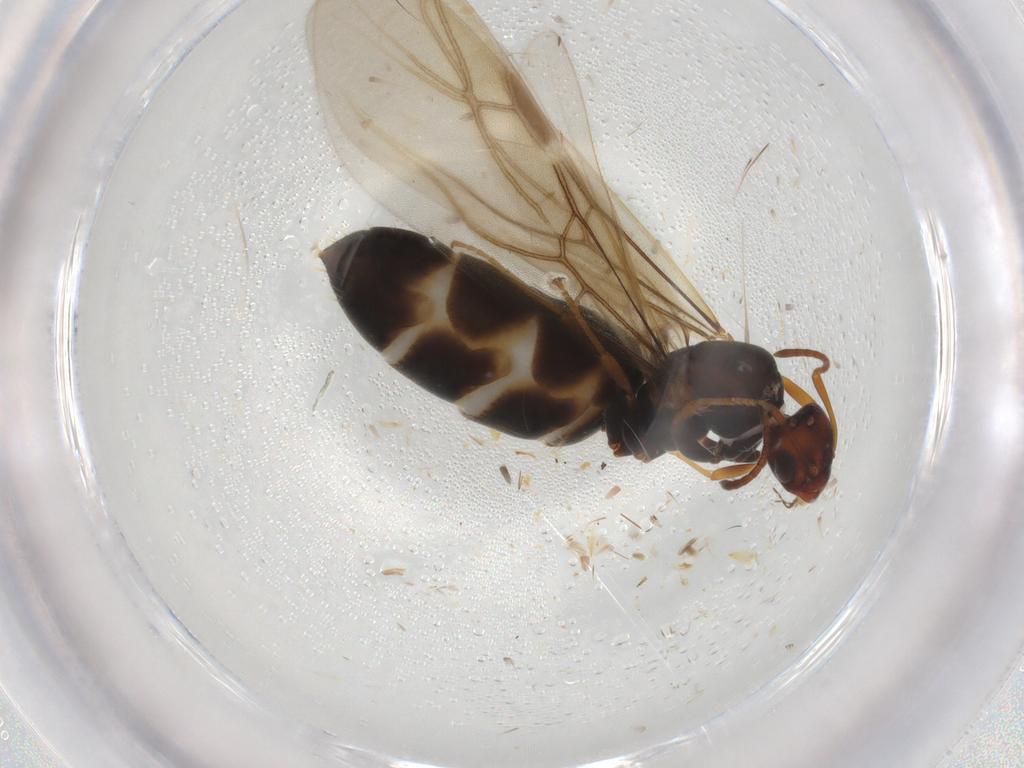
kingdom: Animalia
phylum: Arthropoda
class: Insecta
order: Hymenoptera
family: Formicidae
